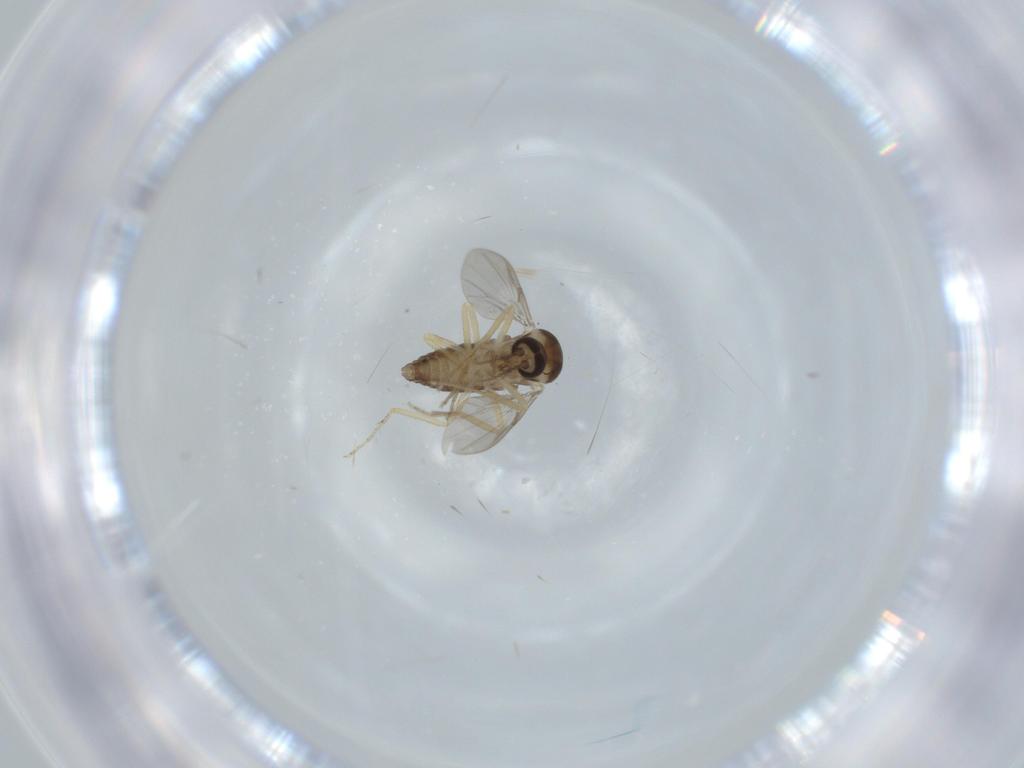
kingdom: Animalia
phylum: Arthropoda
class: Insecta
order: Diptera
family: Ceratopogonidae
